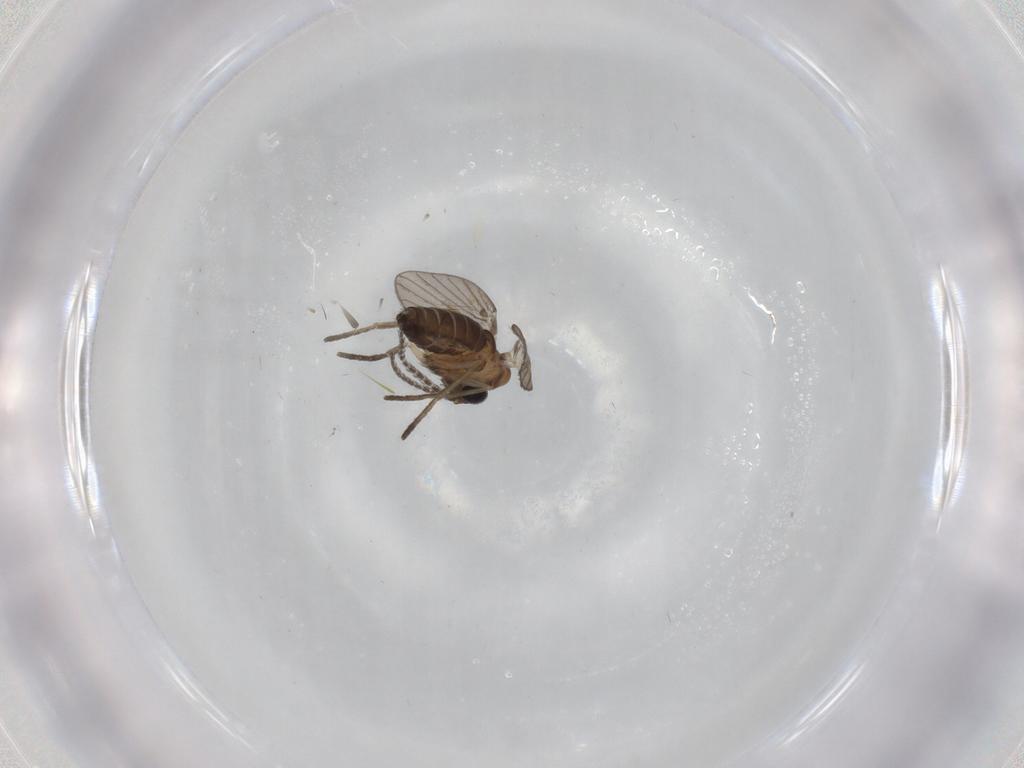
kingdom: Animalia
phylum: Arthropoda
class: Insecta
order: Diptera
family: Cecidomyiidae
